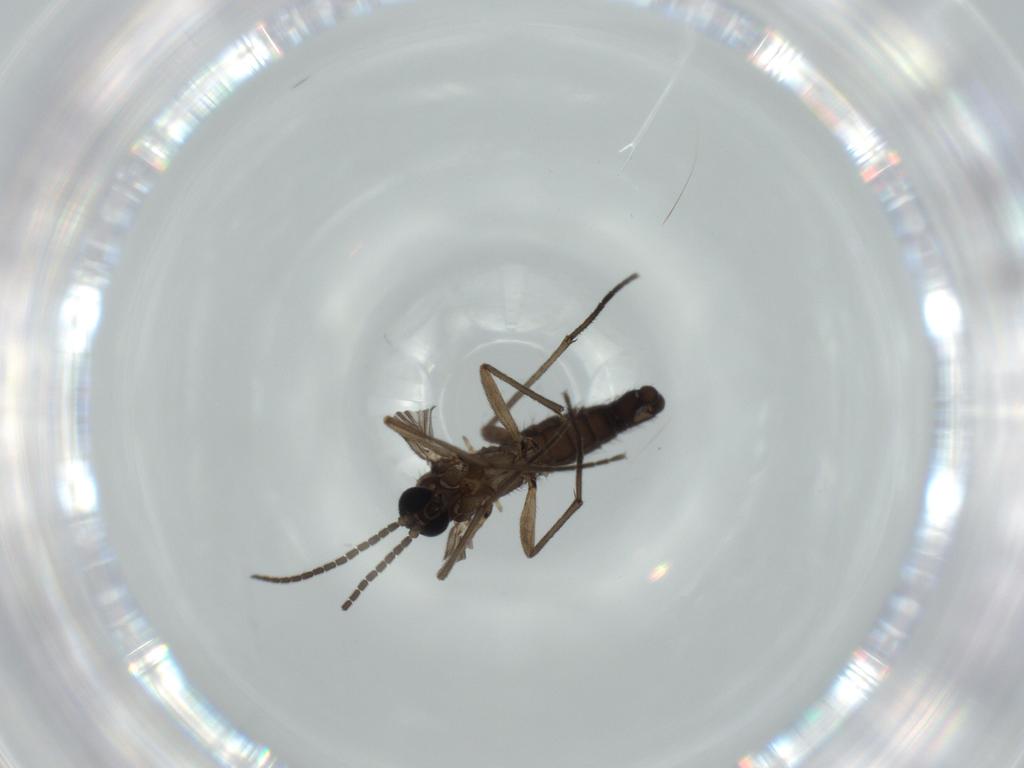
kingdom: Animalia
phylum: Arthropoda
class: Insecta
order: Diptera
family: Sciaridae
